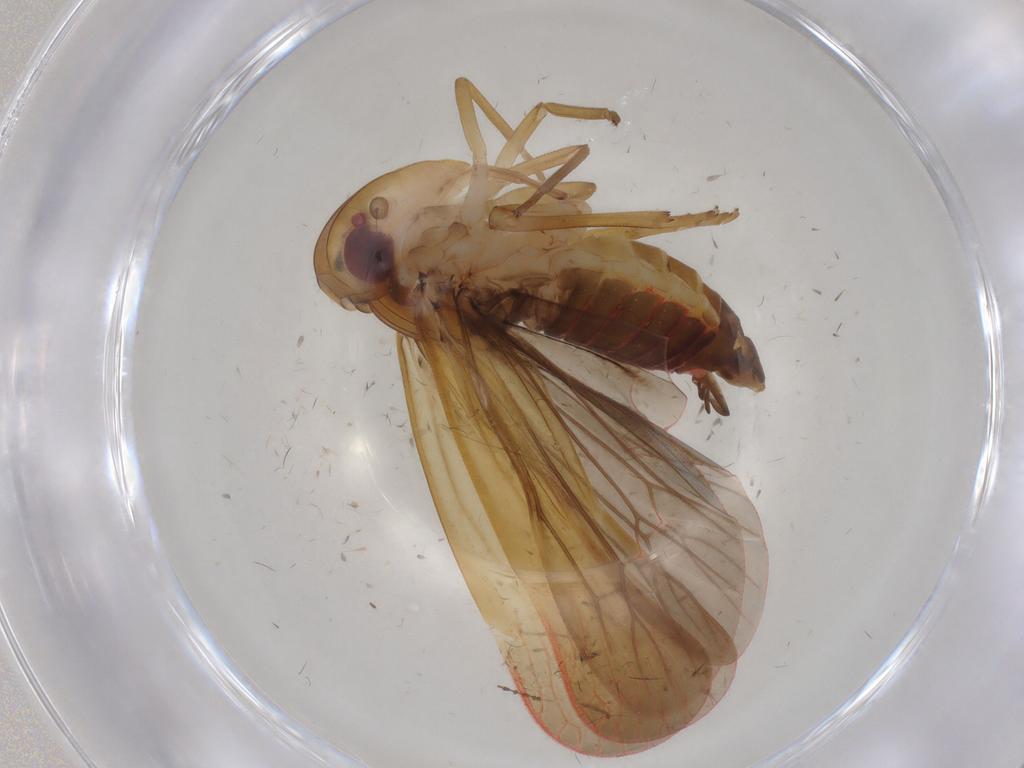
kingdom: Animalia
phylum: Arthropoda
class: Insecta
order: Hemiptera
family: Achilidae
